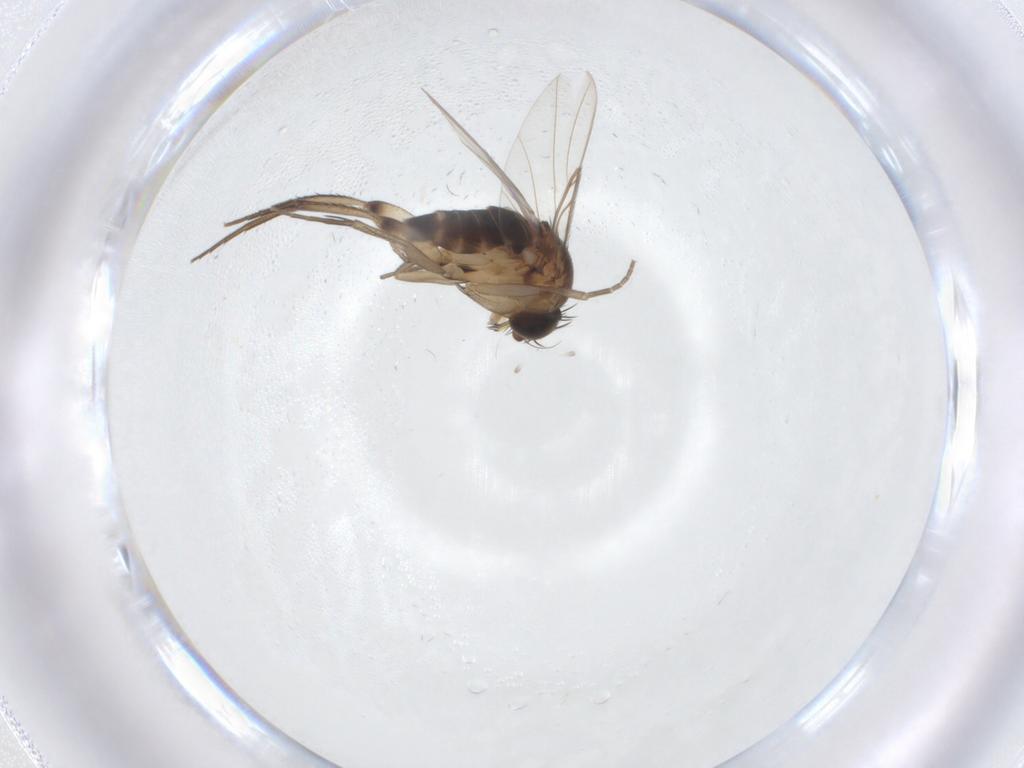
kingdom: Animalia
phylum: Arthropoda
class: Insecta
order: Diptera
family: Phoridae
